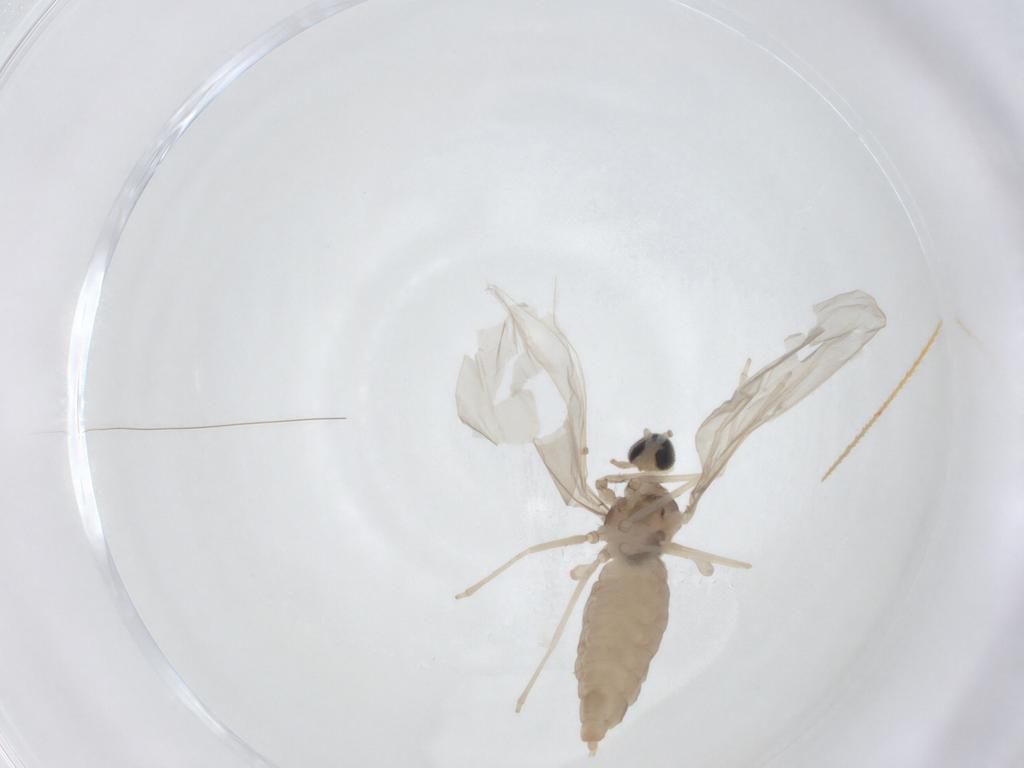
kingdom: Animalia
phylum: Arthropoda
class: Insecta
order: Diptera
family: Cecidomyiidae
